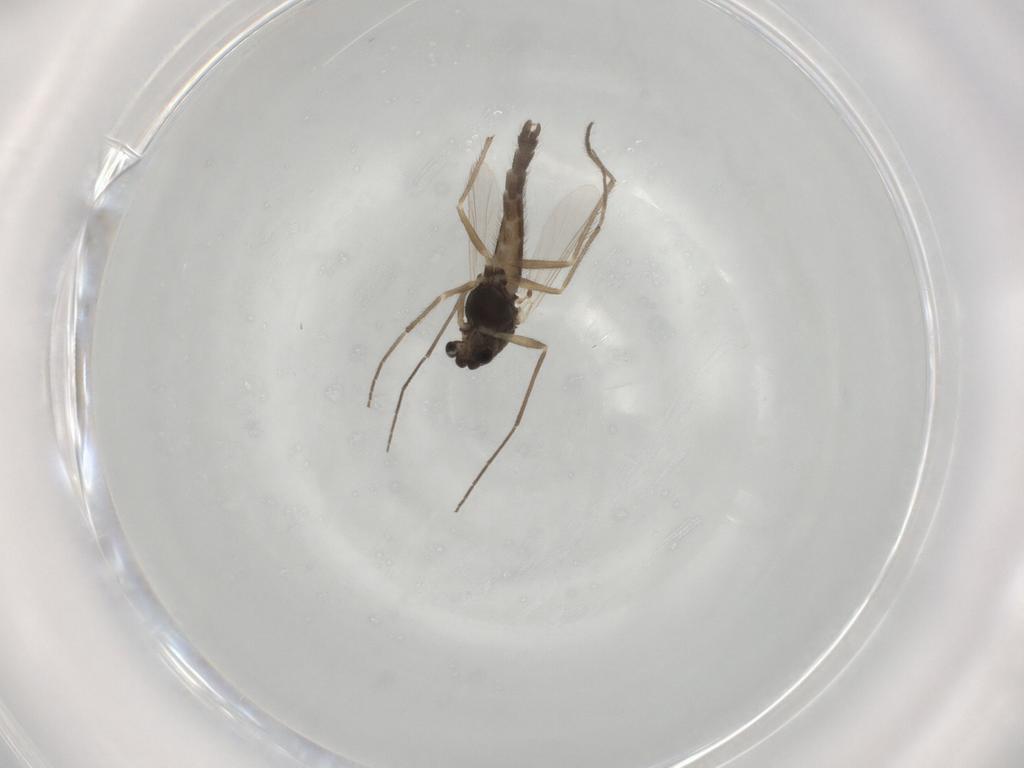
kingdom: Animalia
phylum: Arthropoda
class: Insecta
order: Diptera
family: Chironomidae
